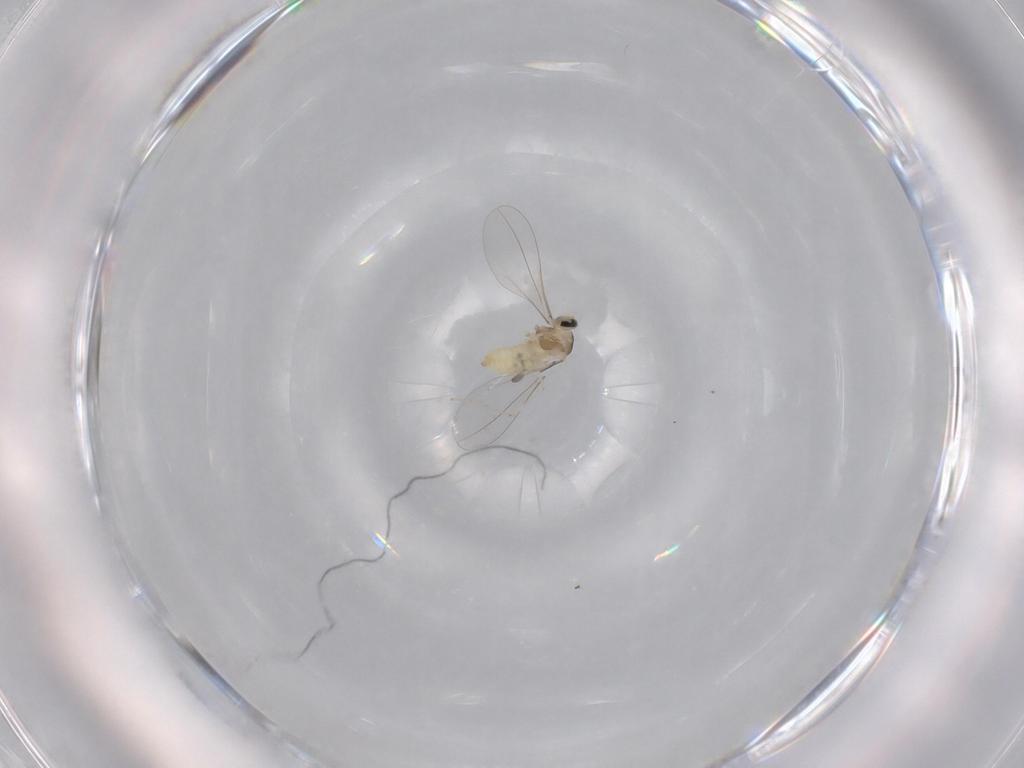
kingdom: Animalia
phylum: Arthropoda
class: Insecta
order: Diptera
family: Cecidomyiidae
